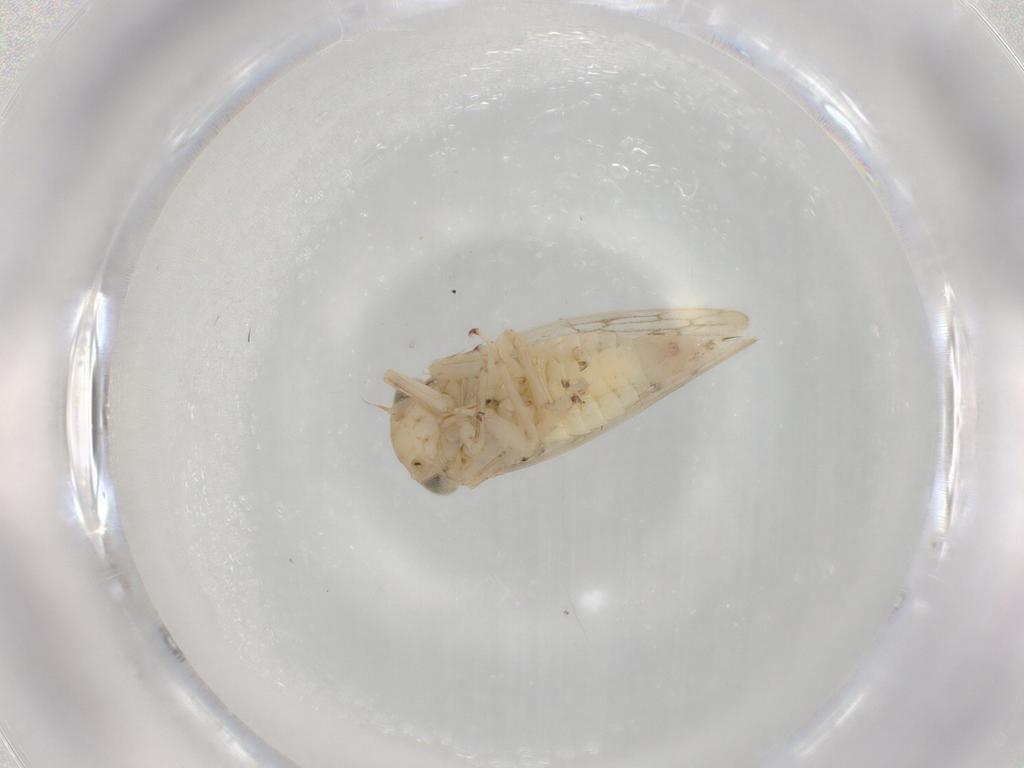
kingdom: Animalia
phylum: Arthropoda
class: Insecta
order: Hemiptera
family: Cicadellidae
